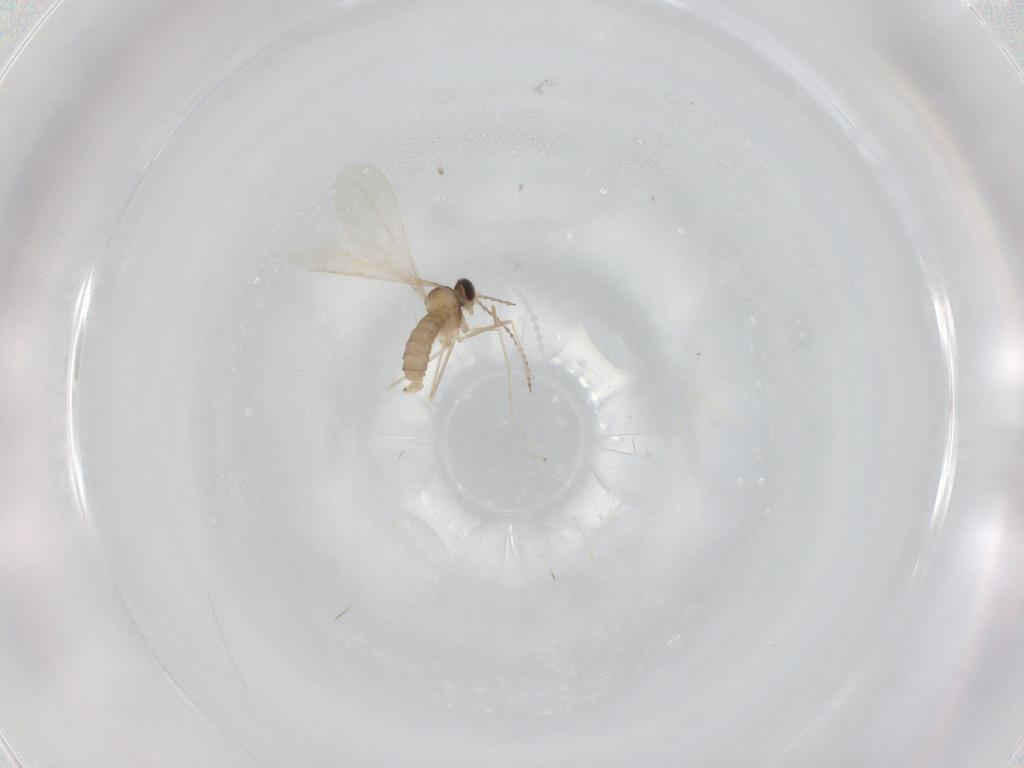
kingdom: Animalia
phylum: Arthropoda
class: Insecta
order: Diptera
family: Cecidomyiidae
